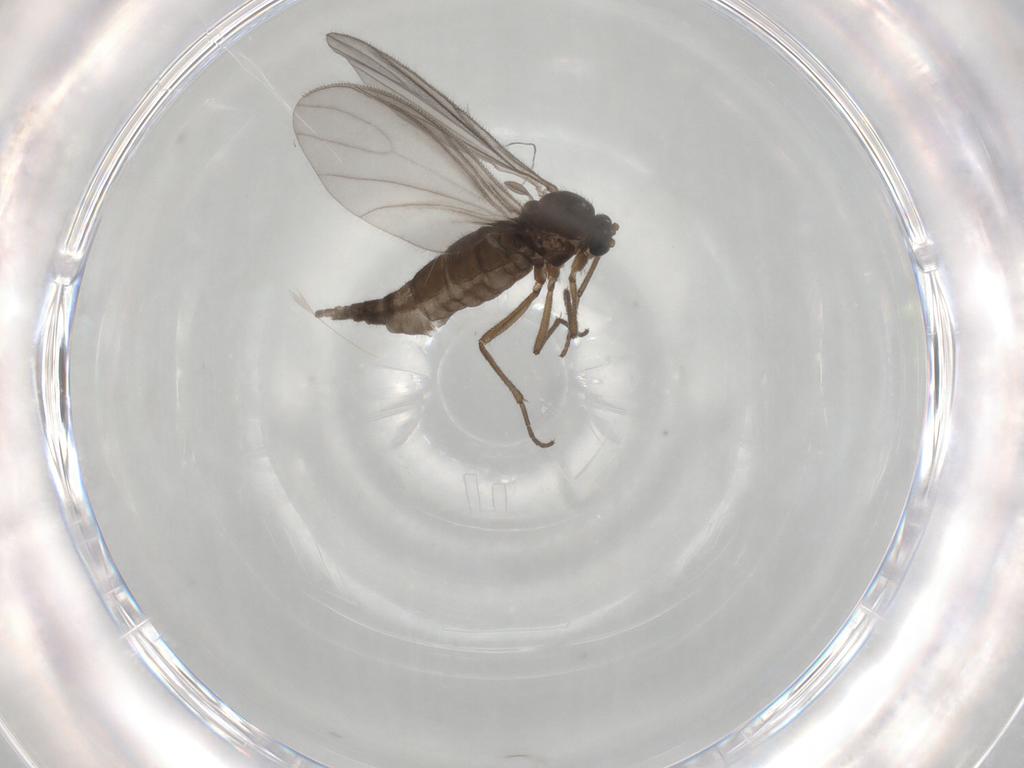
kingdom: Animalia
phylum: Arthropoda
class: Insecta
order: Diptera
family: Sciaridae
